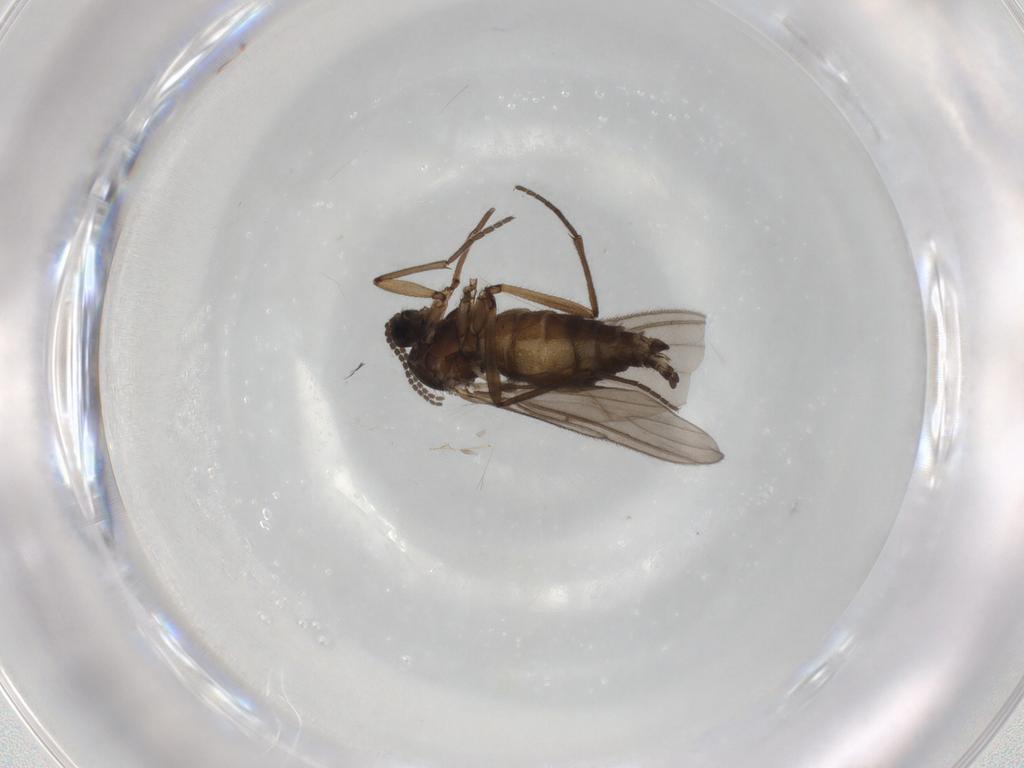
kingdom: Animalia
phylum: Arthropoda
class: Insecta
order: Diptera
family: Sciaridae
